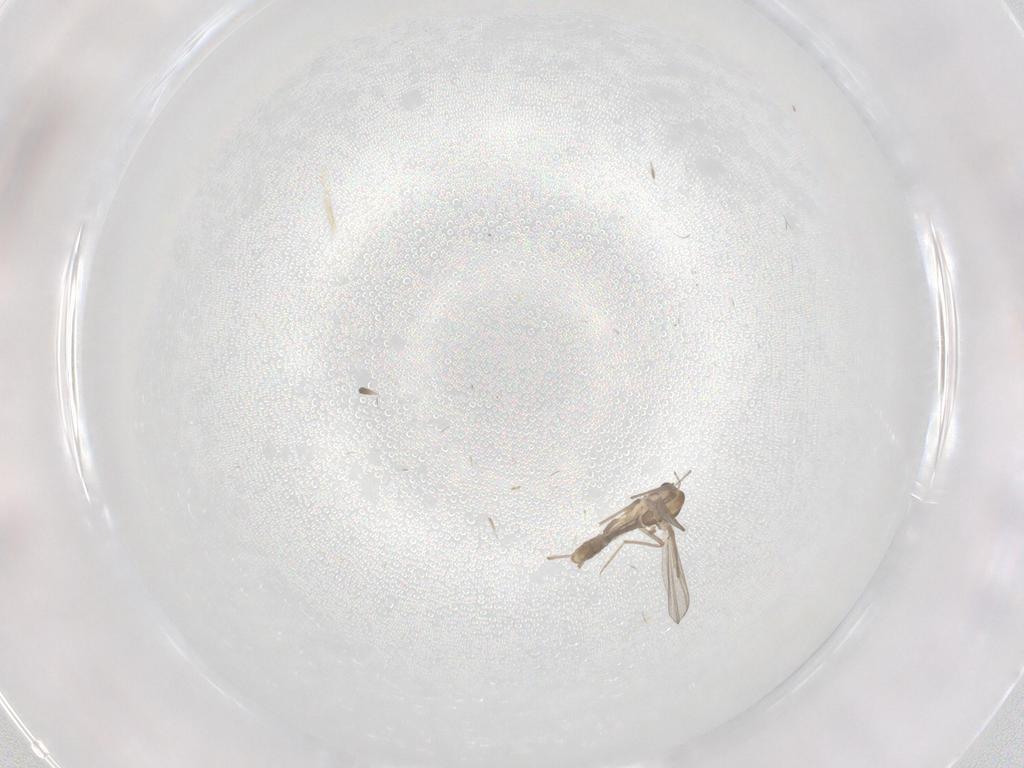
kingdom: Animalia
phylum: Arthropoda
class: Insecta
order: Diptera
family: Chironomidae
